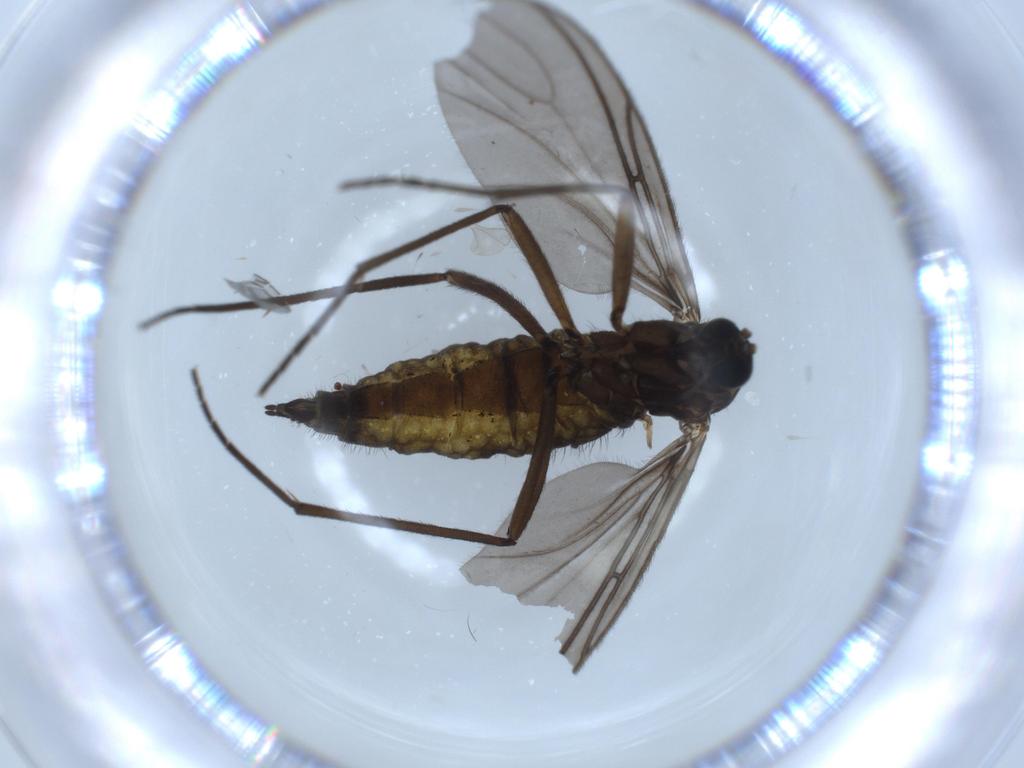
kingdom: Animalia
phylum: Arthropoda
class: Insecta
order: Diptera
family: Sciaridae
